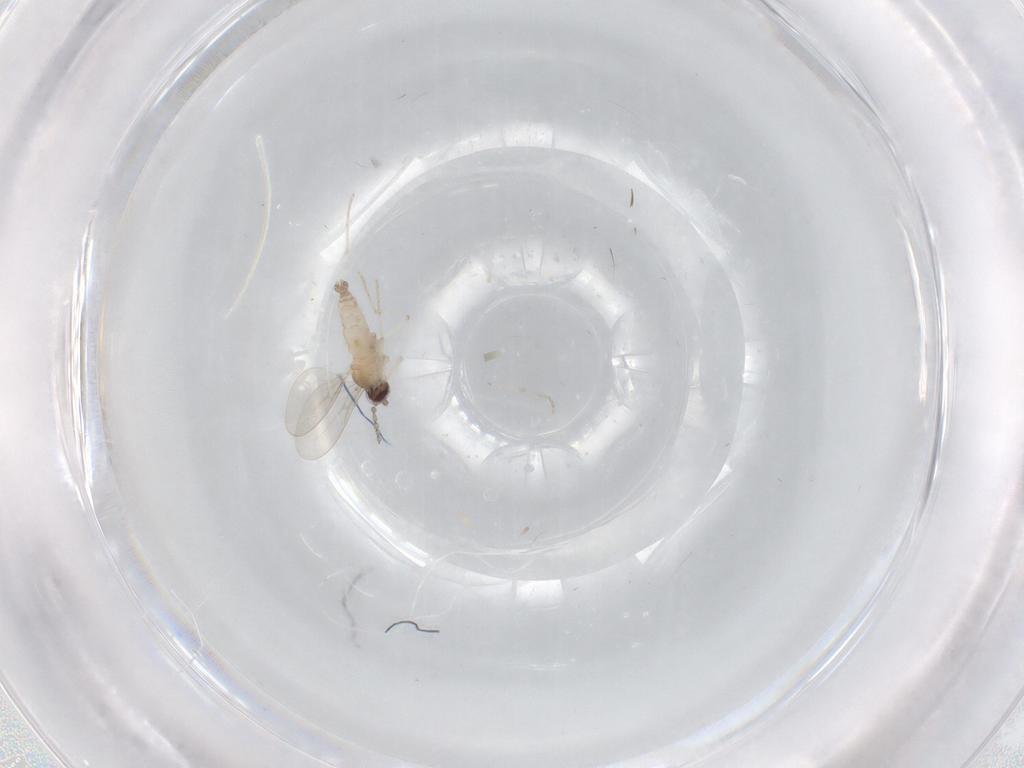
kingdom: Animalia
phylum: Arthropoda
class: Insecta
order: Diptera
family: Cecidomyiidae
